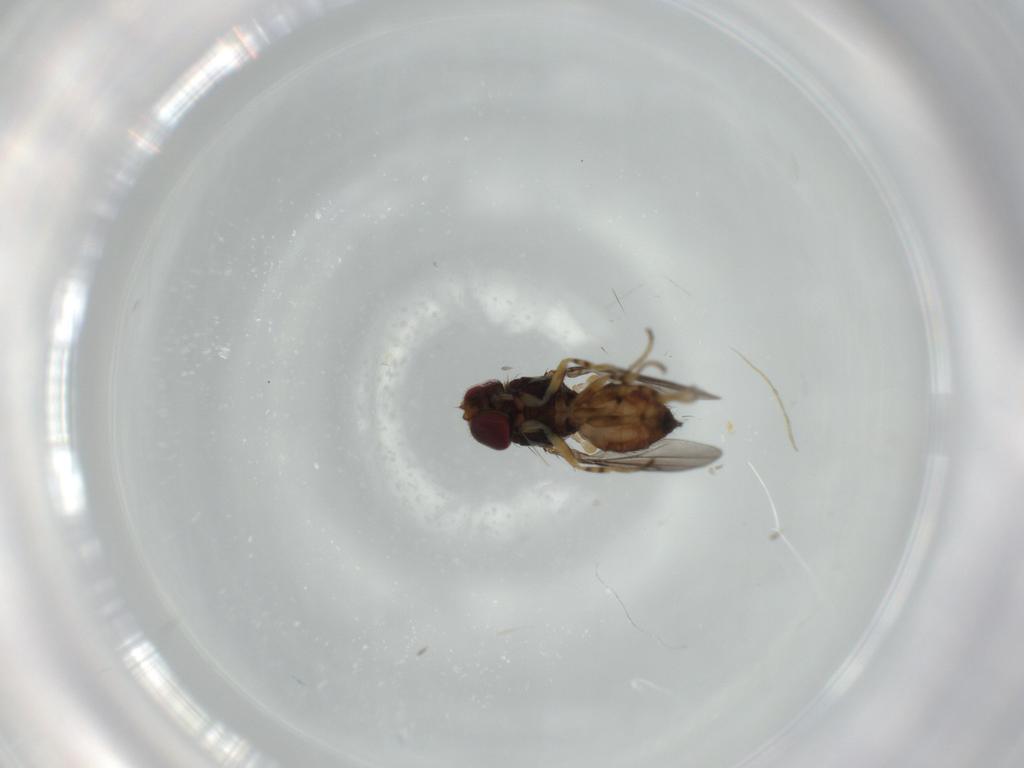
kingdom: Animalia
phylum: Arthropoda
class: Insecta
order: Diptera
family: Chloropidae
